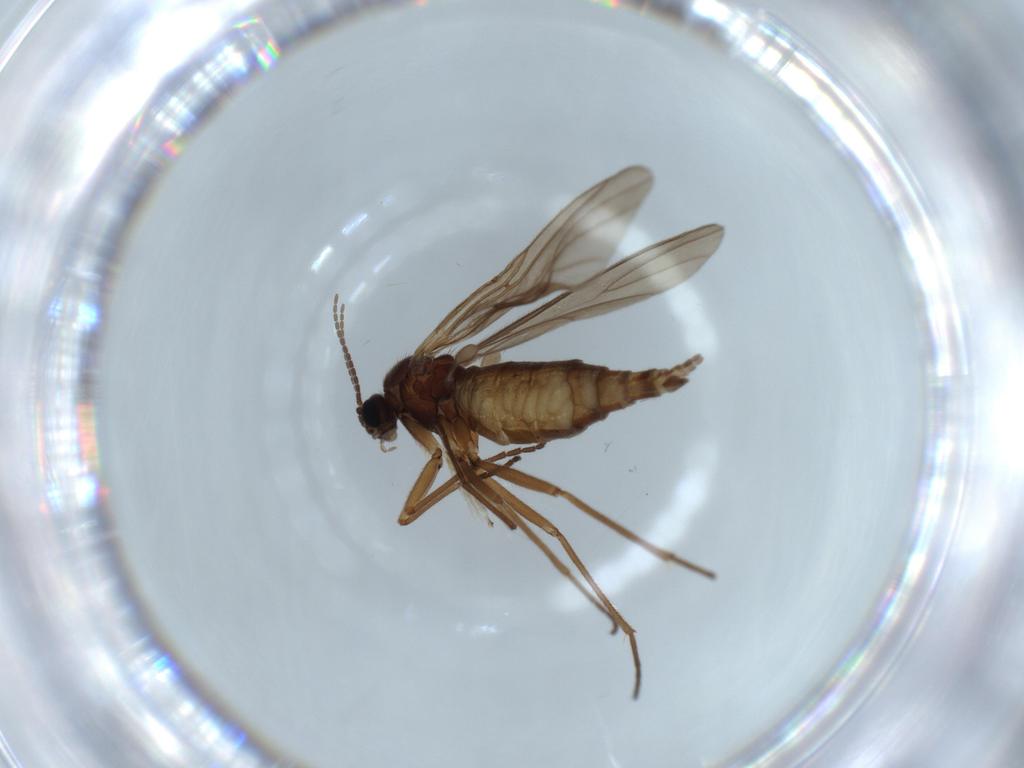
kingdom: Animalia
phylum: Arthropoda
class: Insecta
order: Diptera
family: Sciaridae
